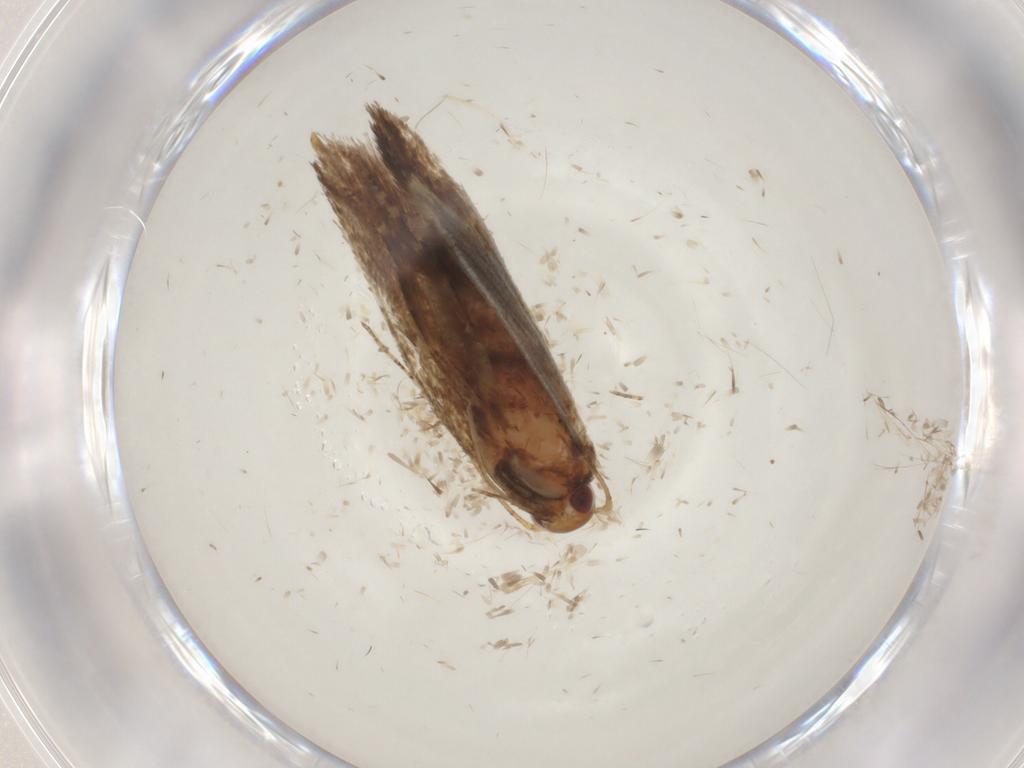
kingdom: Animalia
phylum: Arthropoda
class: Insecta
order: Lepidoptera
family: Oecophoridae
